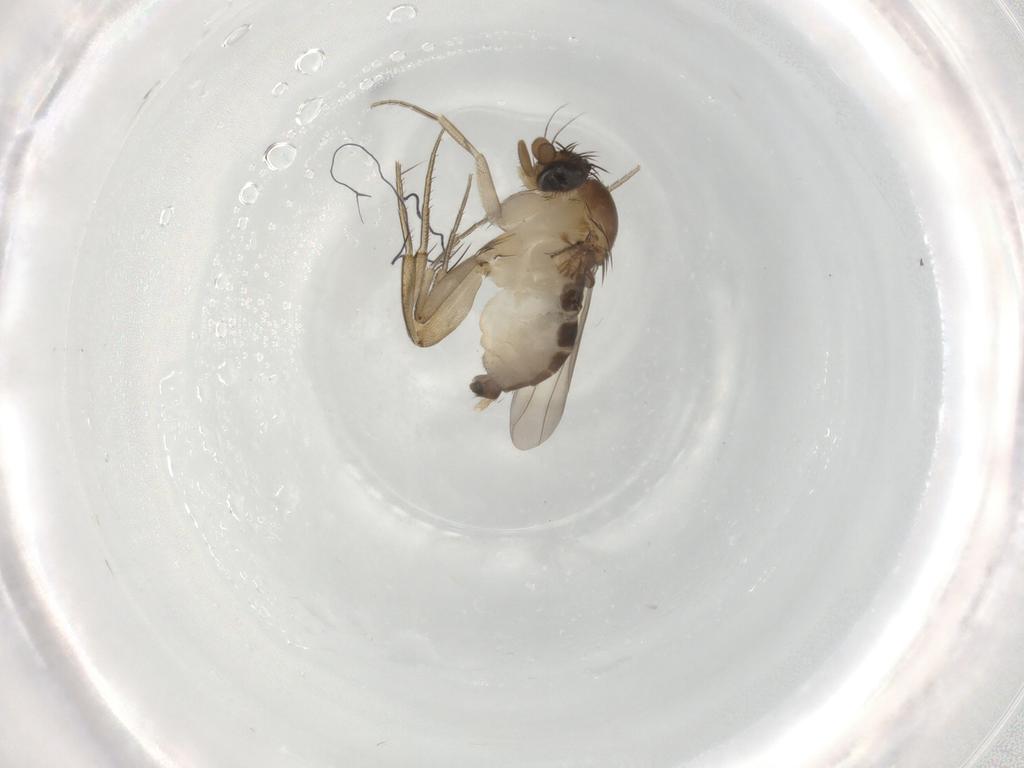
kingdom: Animalia
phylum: Arthropoda
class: Insecta
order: Diptera
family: Phoridae
